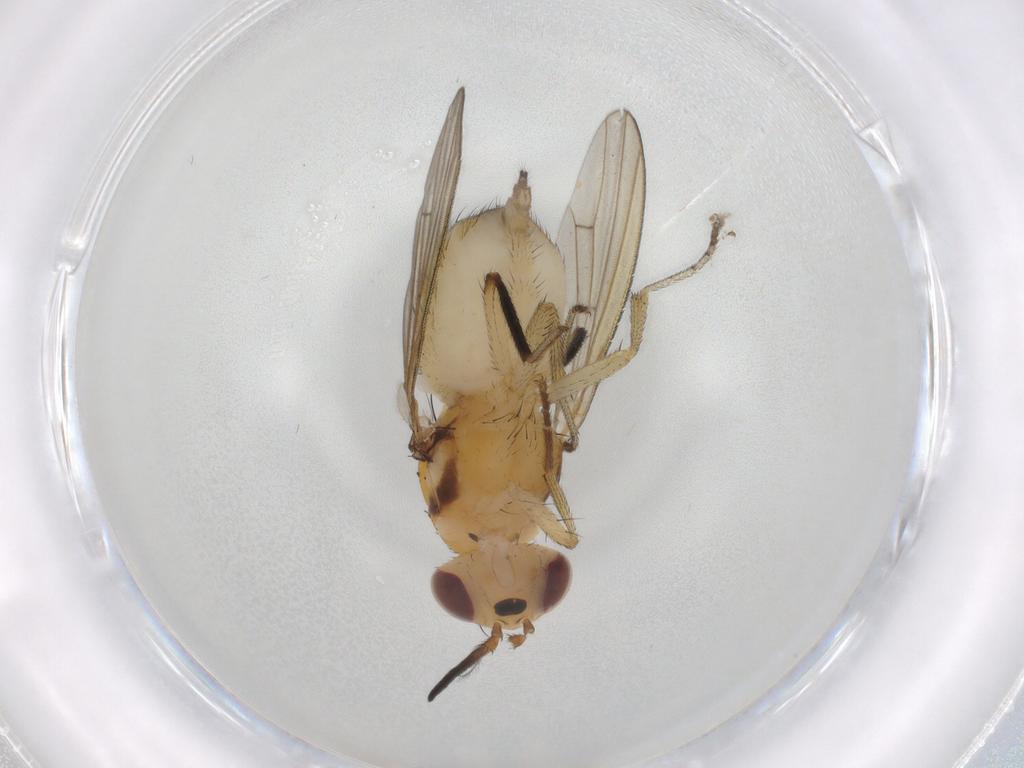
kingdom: Animalia
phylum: Arthropoda
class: Insecta
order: Diptera
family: Lauxaniidae
